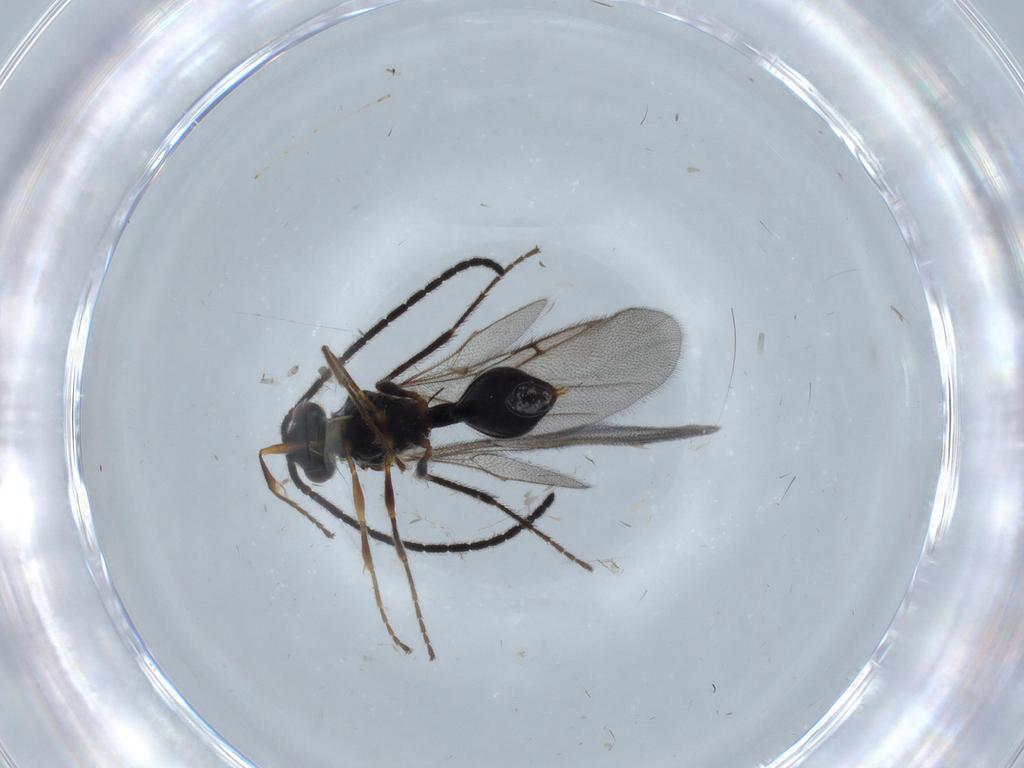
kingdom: Animalia
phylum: Arthropoda
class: Insecta
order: Hymenoptera
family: Diapriidae
